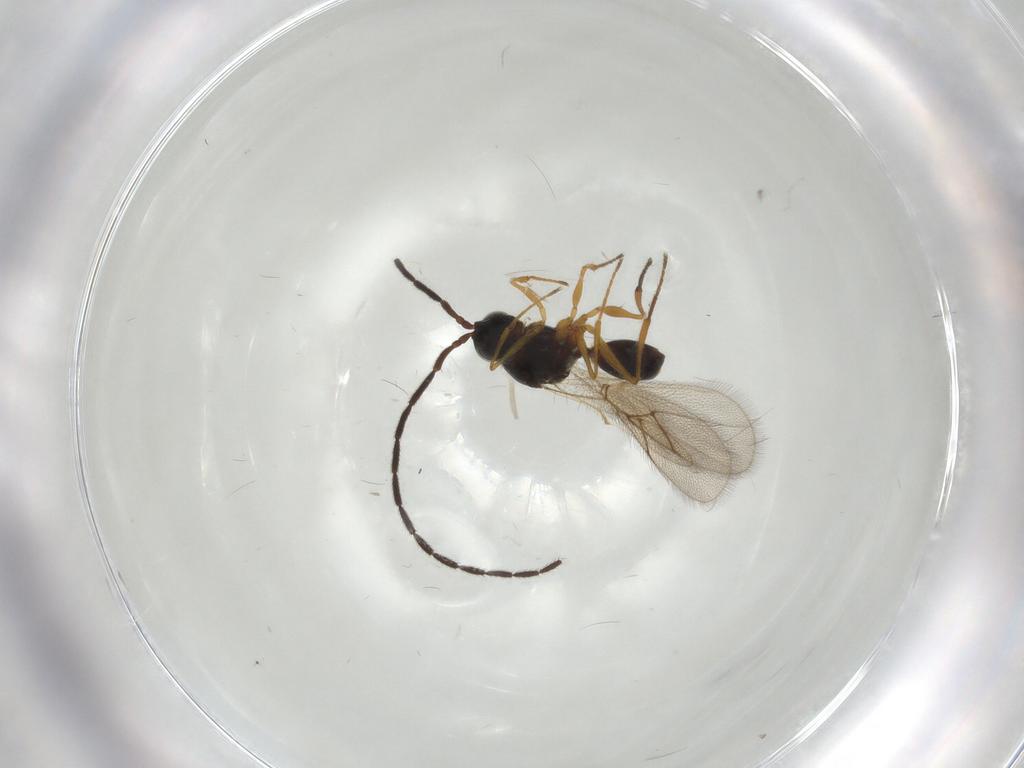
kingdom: Animalia
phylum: Arthropoda
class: Insecta
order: Hymenoptera
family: Figitidae
